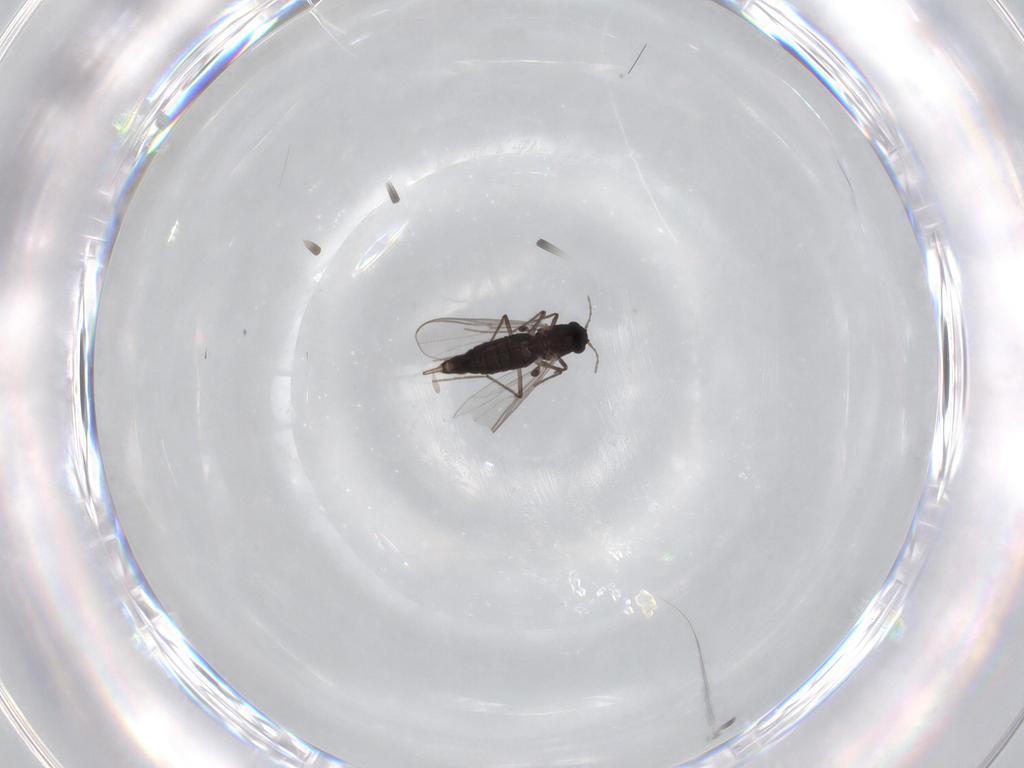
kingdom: Animalia
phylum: Arthropoda
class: Insecta
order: Diptera
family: Chironomidae
